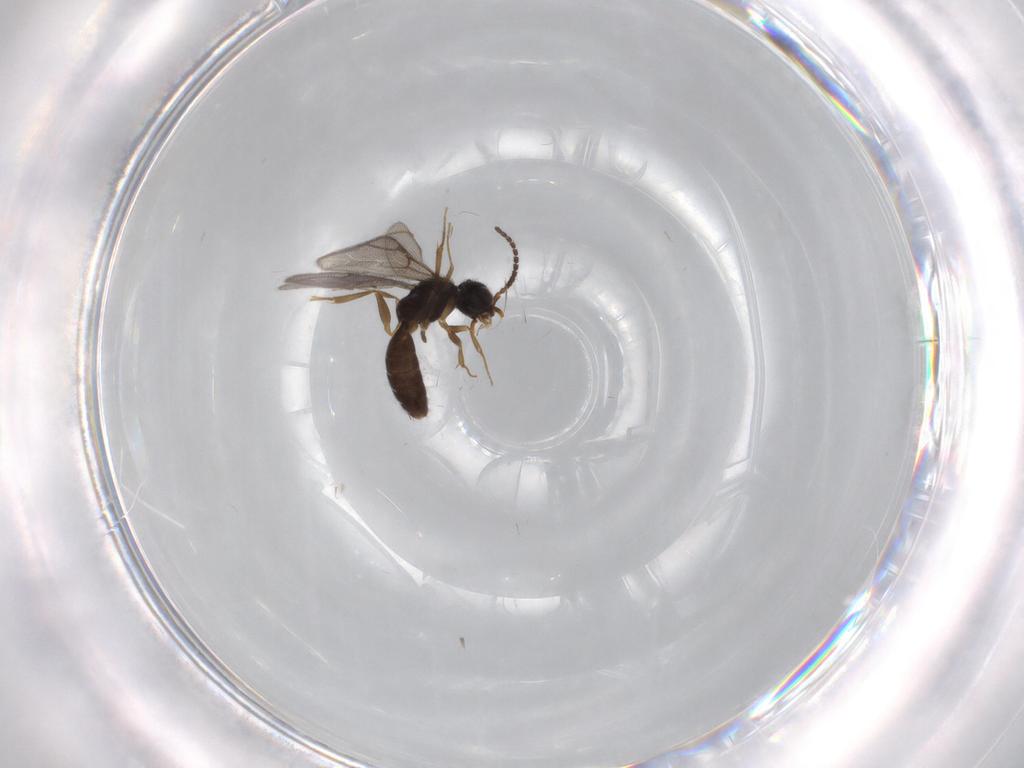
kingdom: Animalia
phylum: Arthropoda
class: Insecta
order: Hymenoptera
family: Bethylidae
